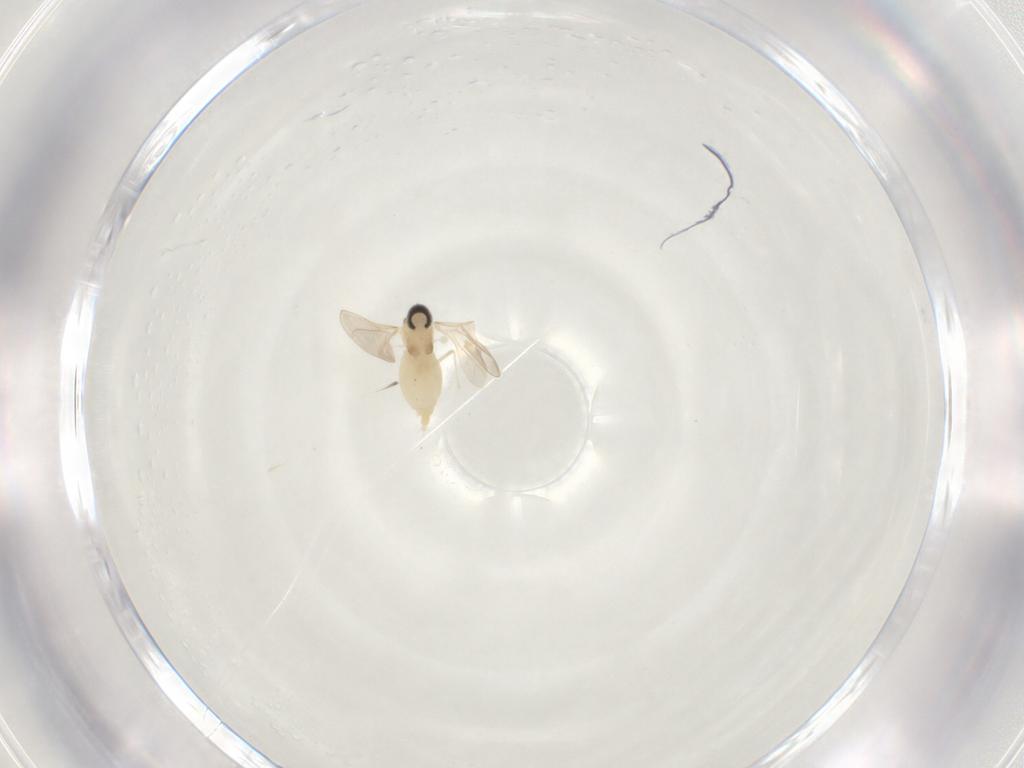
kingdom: Animalia
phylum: Arthropoda
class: Insecta
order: Diptera
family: Cecidomyiidae
